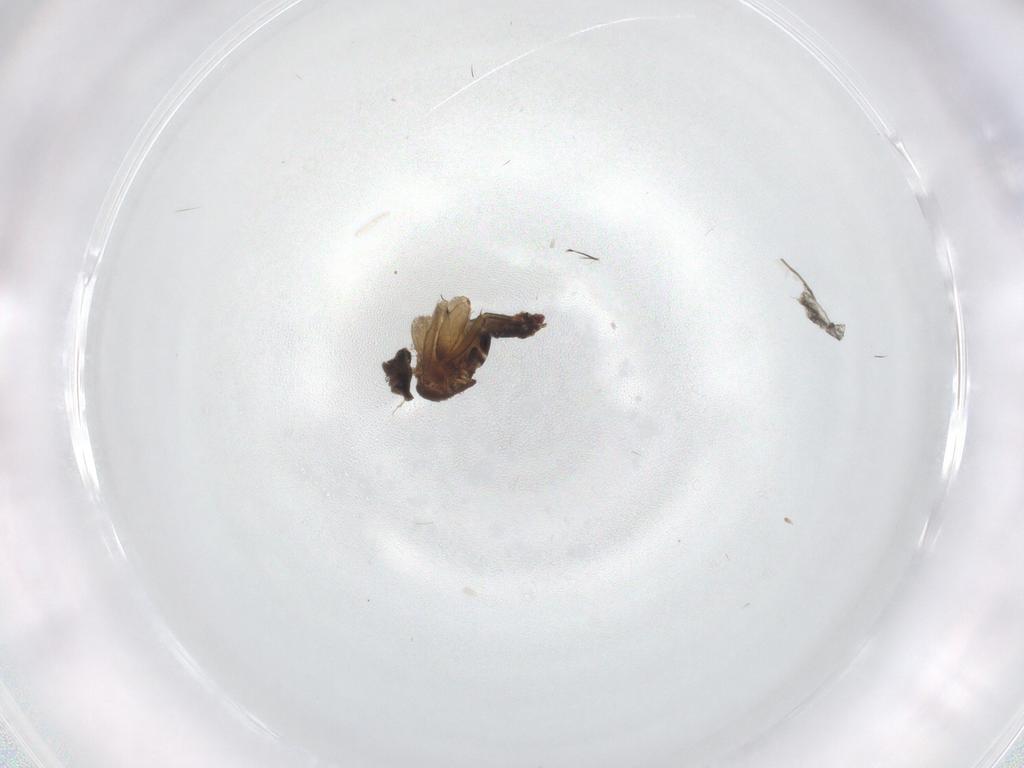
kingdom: Animalia
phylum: Arthropoda
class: Insecta
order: Diptera
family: Phoridae
